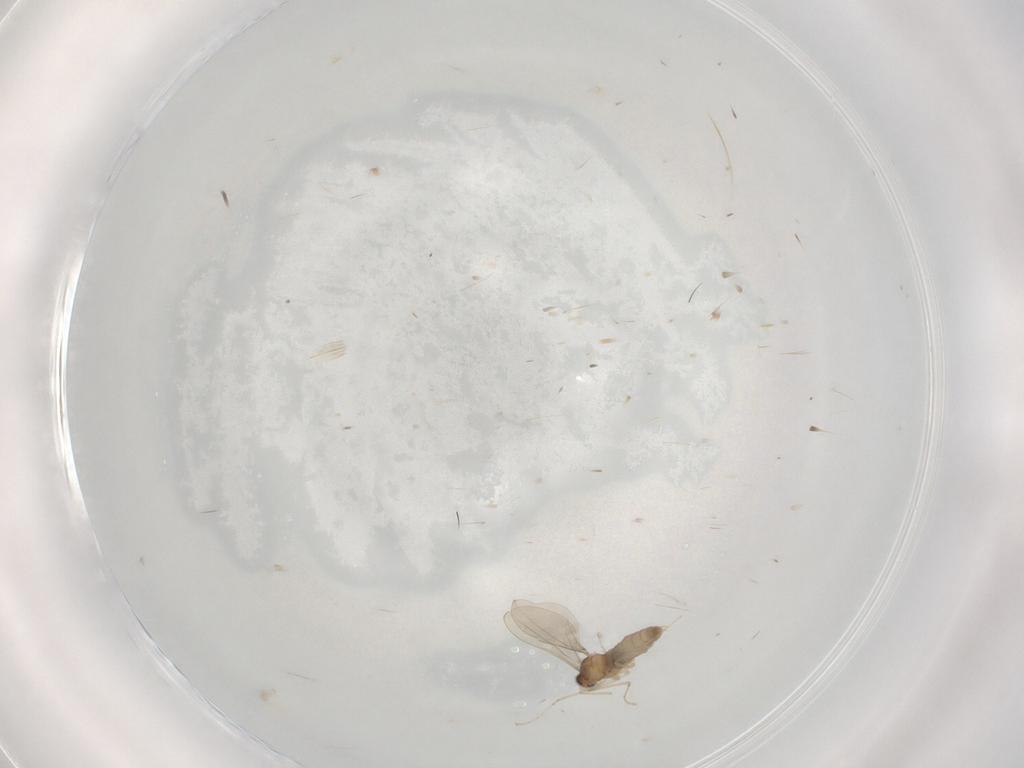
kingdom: Animalia
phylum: Arthropoda
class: Insecta
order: Diptera
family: Cecidomyiidae
